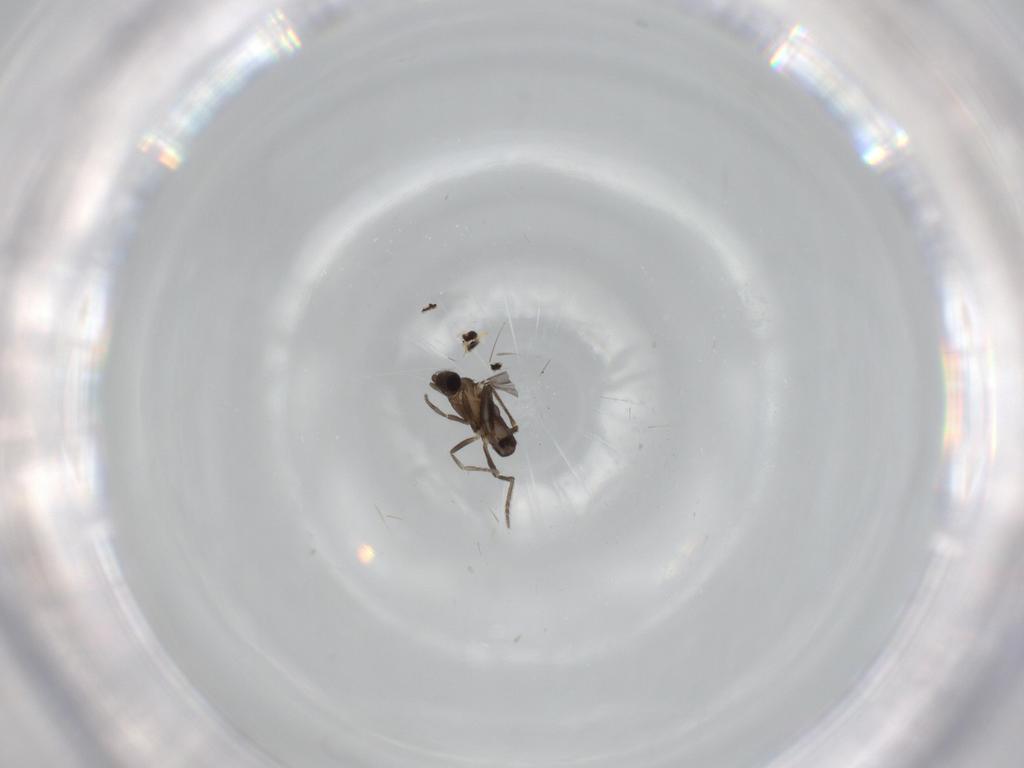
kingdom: Animalia
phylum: Arthropoda
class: Insecta
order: Diptera
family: Phoridae
